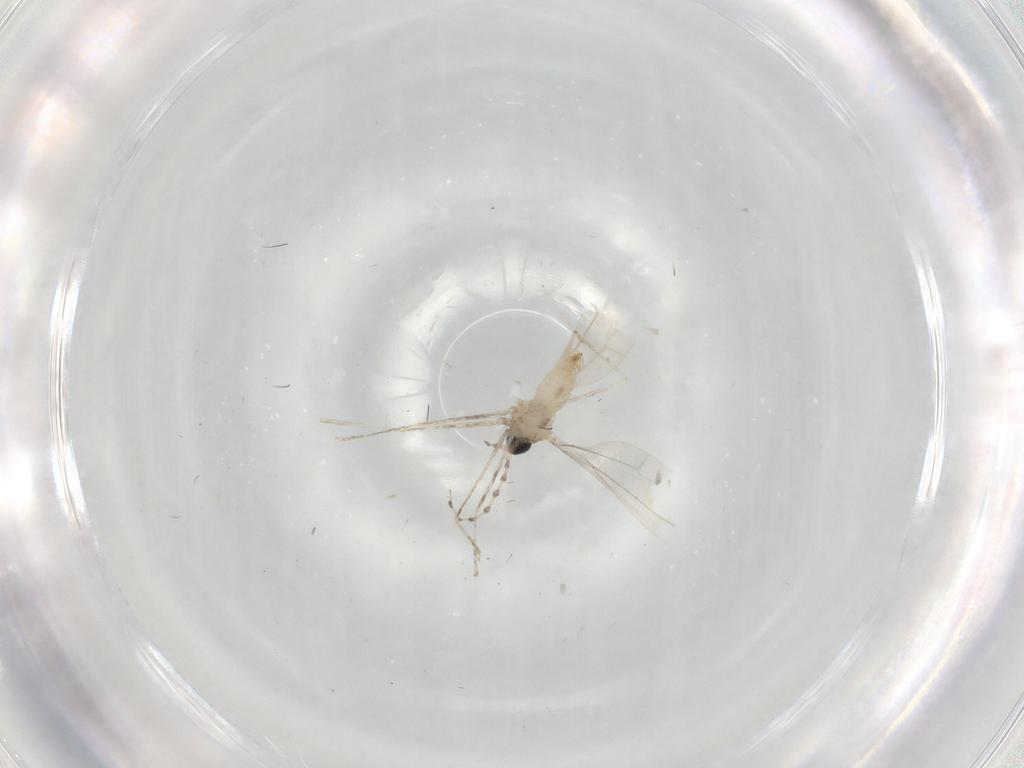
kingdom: Animalia
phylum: Arthropoda
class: Insecta
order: Diptera
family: Cecidomyiidae
